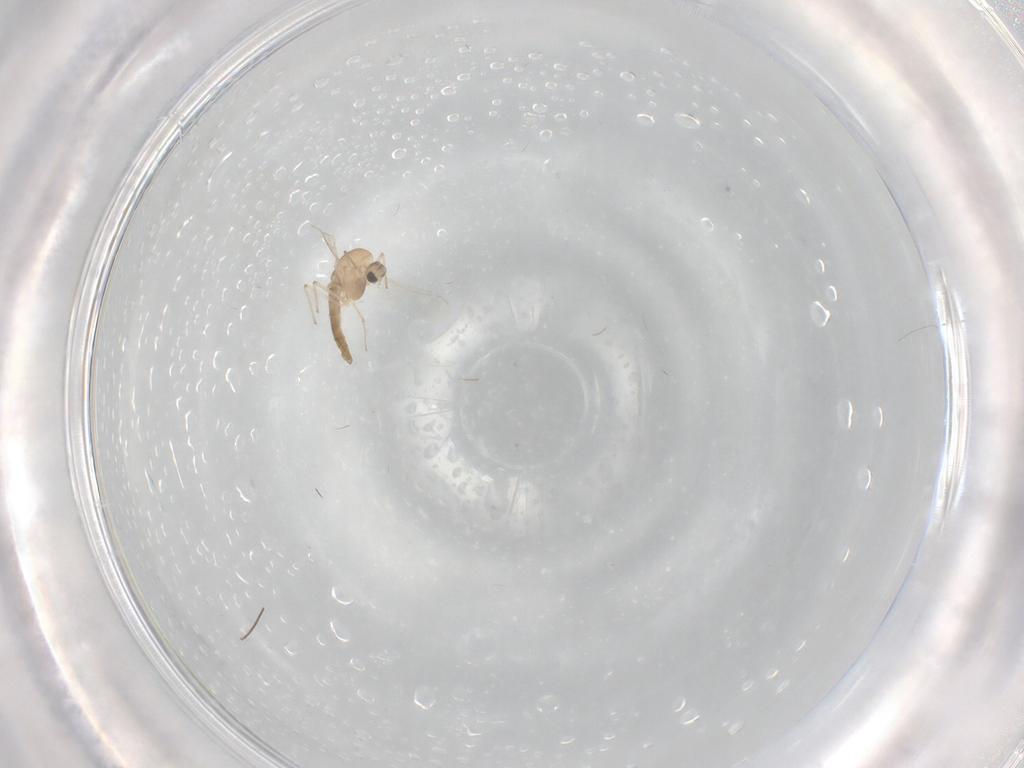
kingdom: Animalia
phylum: Arthropoda
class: Insecta
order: Diptera
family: Chironomidae
